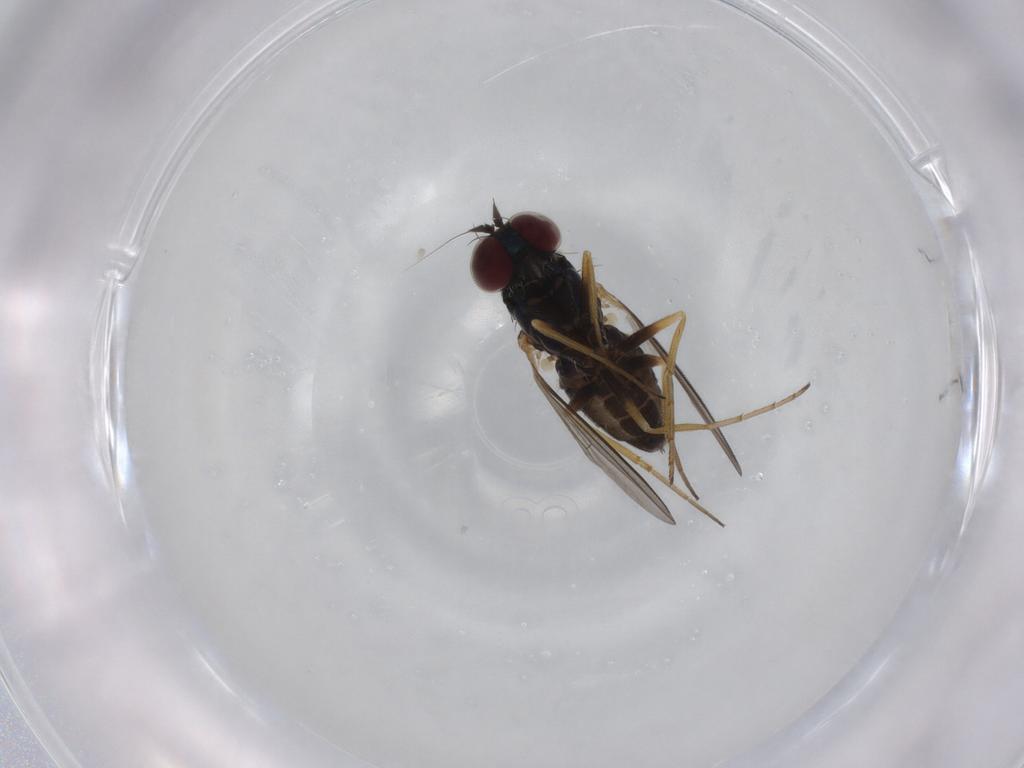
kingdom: Animalia
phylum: Arthropoda
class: Insecta
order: Diptera
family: Dolichopodidae
